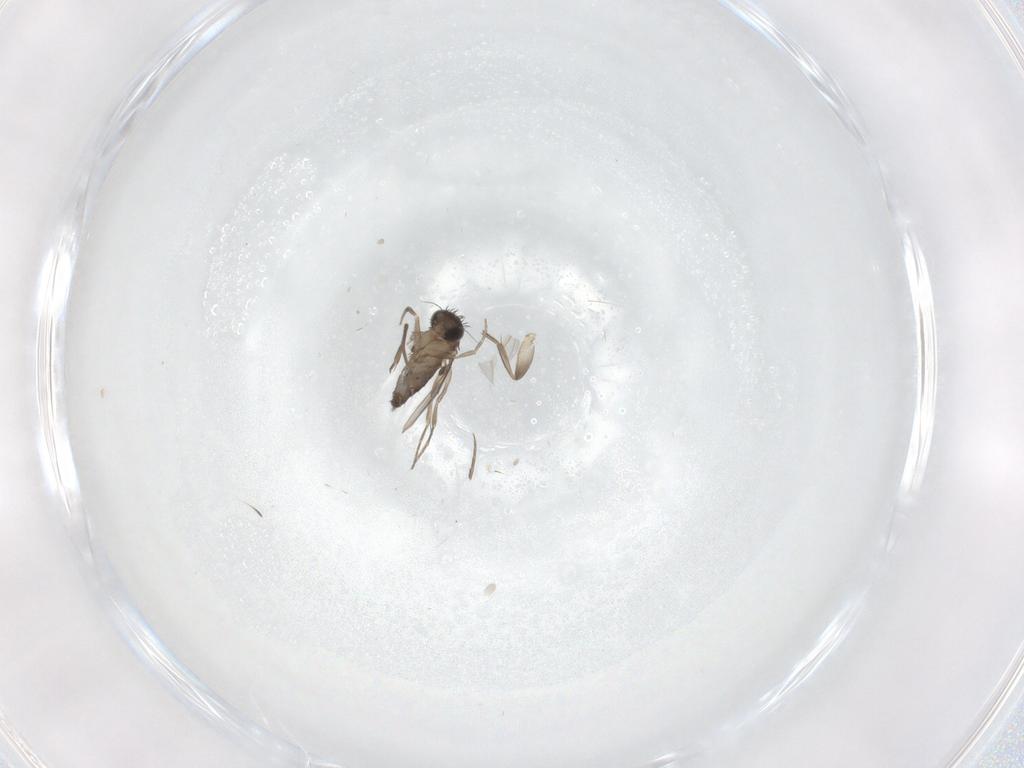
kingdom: Animalia
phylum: Arthropoda
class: Insecta
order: Diptera
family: Phoridae
